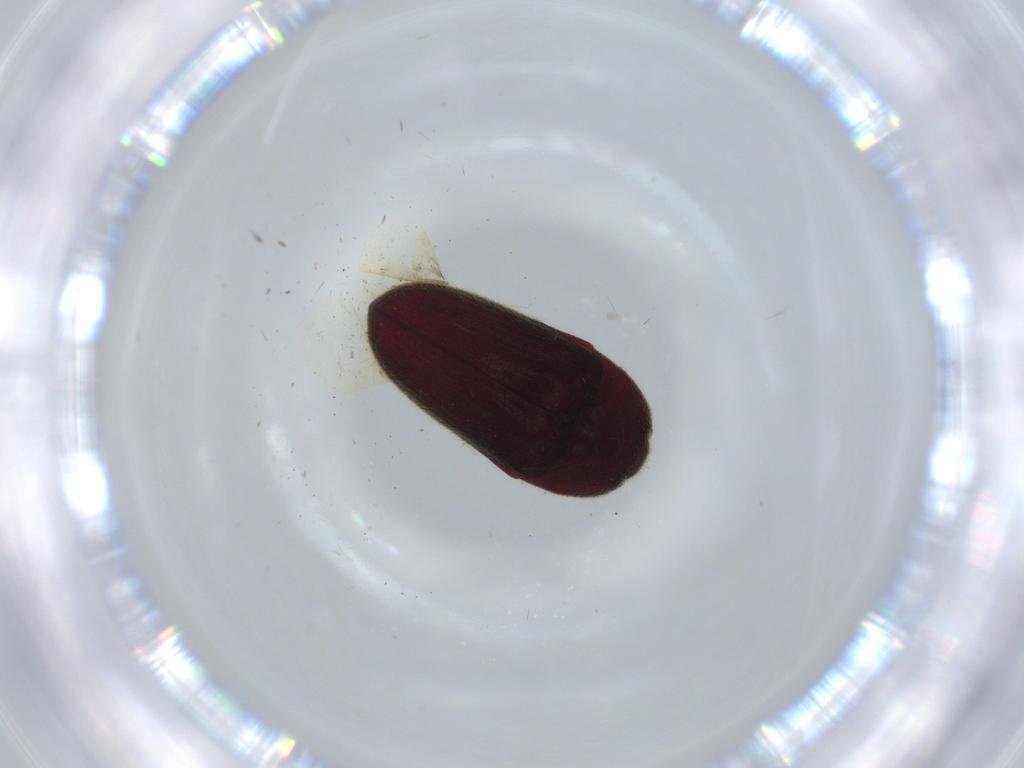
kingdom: Animalia
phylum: Arthropoda
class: Insecta
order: Coleoptera
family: Throscidae
